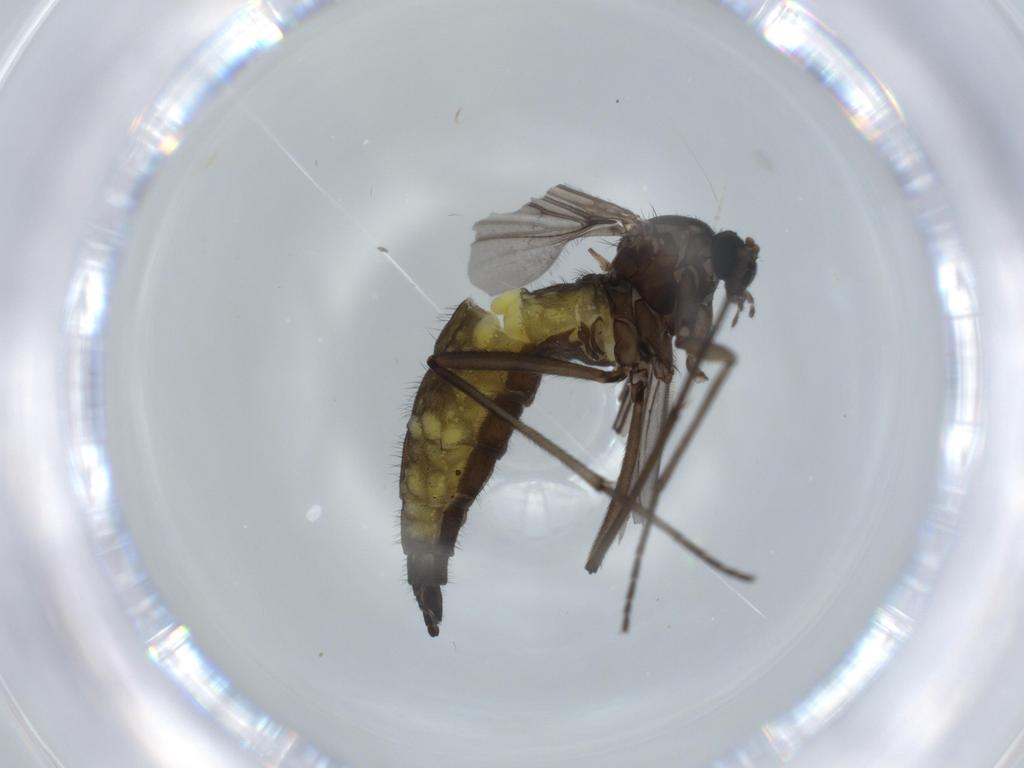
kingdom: Animalia
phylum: Arthropoda
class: Insecta
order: Diptera
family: Sciaridae
